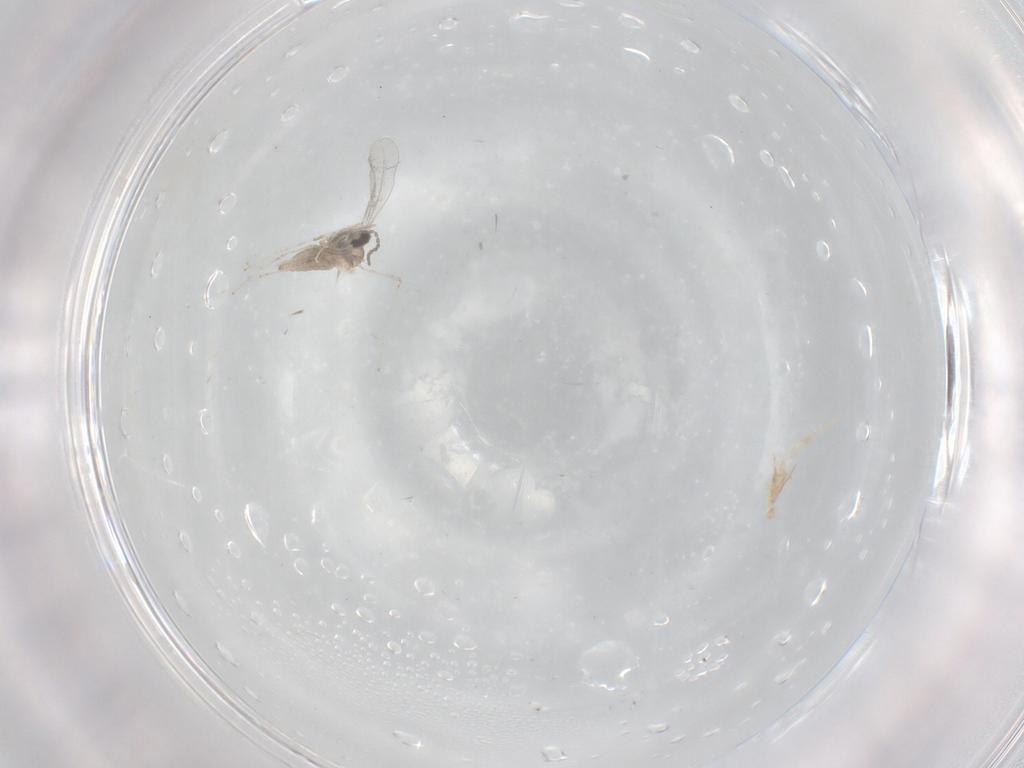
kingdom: Animalia
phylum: Arthropoda
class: Insecta
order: Diptera
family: Cecidomyiidae
